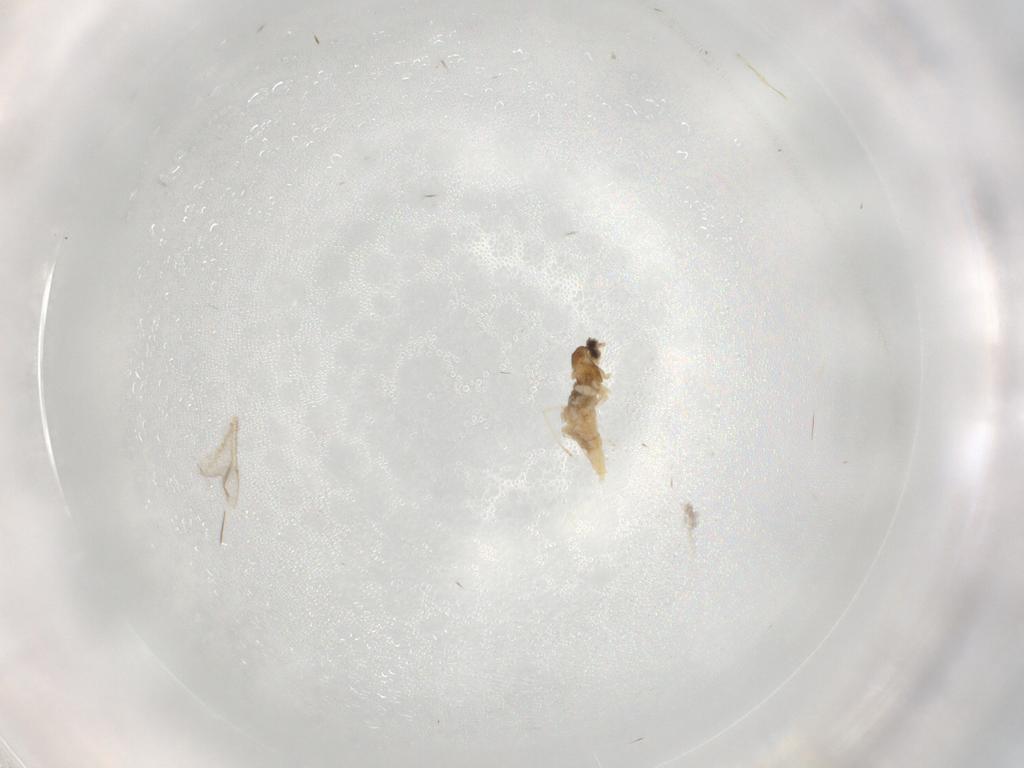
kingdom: Animalia
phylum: Arthropoda
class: Insecta
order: Diptera
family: Cecidomyiidae
